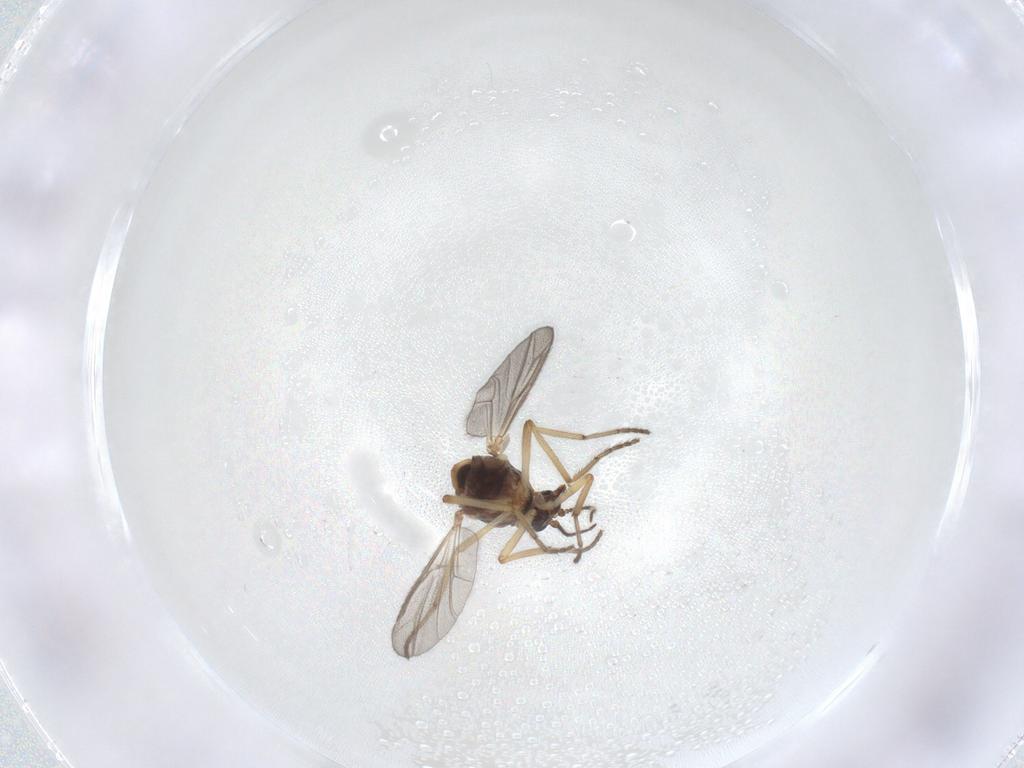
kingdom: Animalia
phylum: Arthropoda
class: Insecta
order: Diptera
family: Ceratopogonidae
